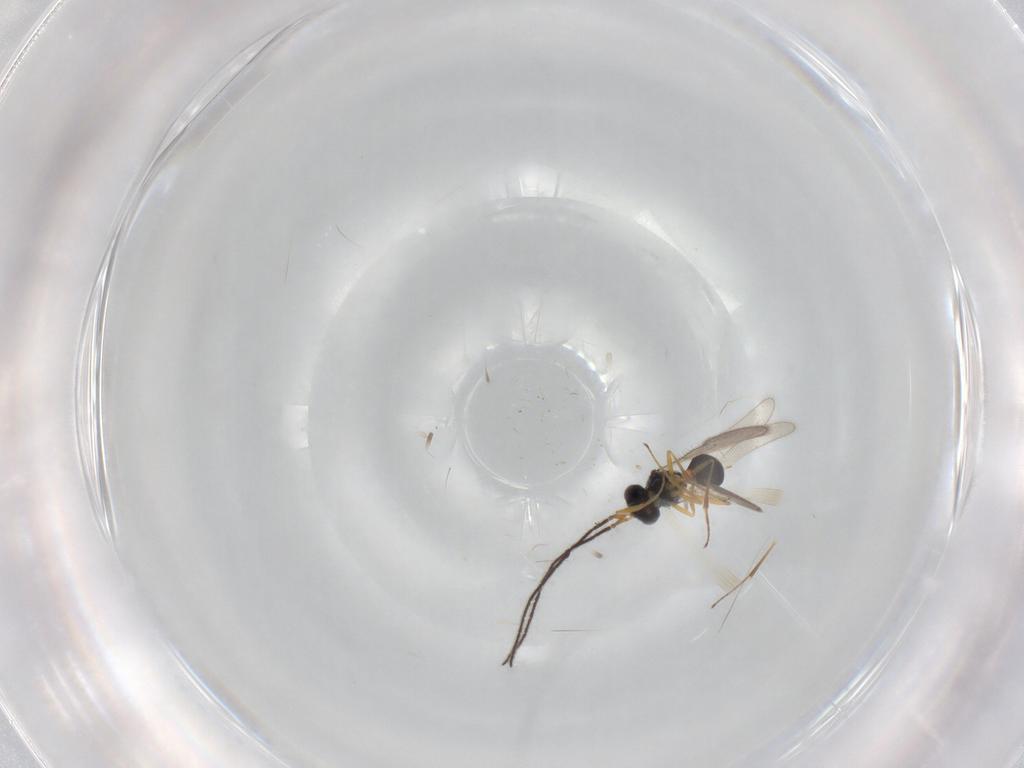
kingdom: Animalia
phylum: Arthropoda
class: Insecta
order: Hymenoptera
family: Scelionidae
